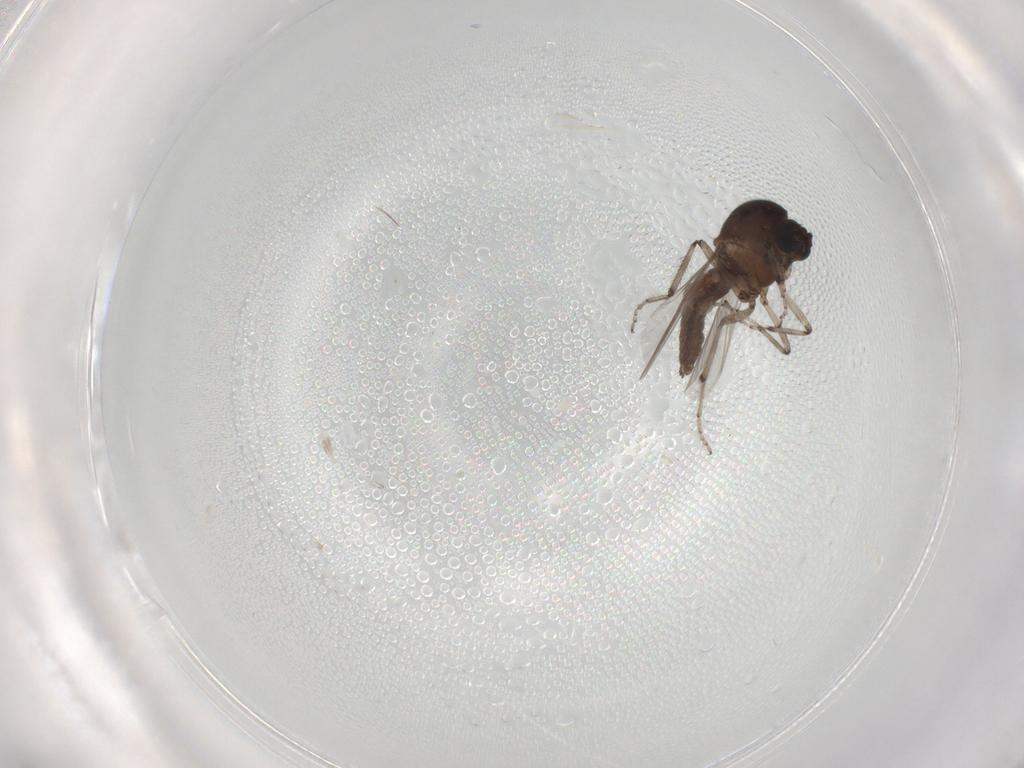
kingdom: Animalia
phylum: Arthropoda
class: Insecta
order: Diptera
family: Ceratopogonidae
